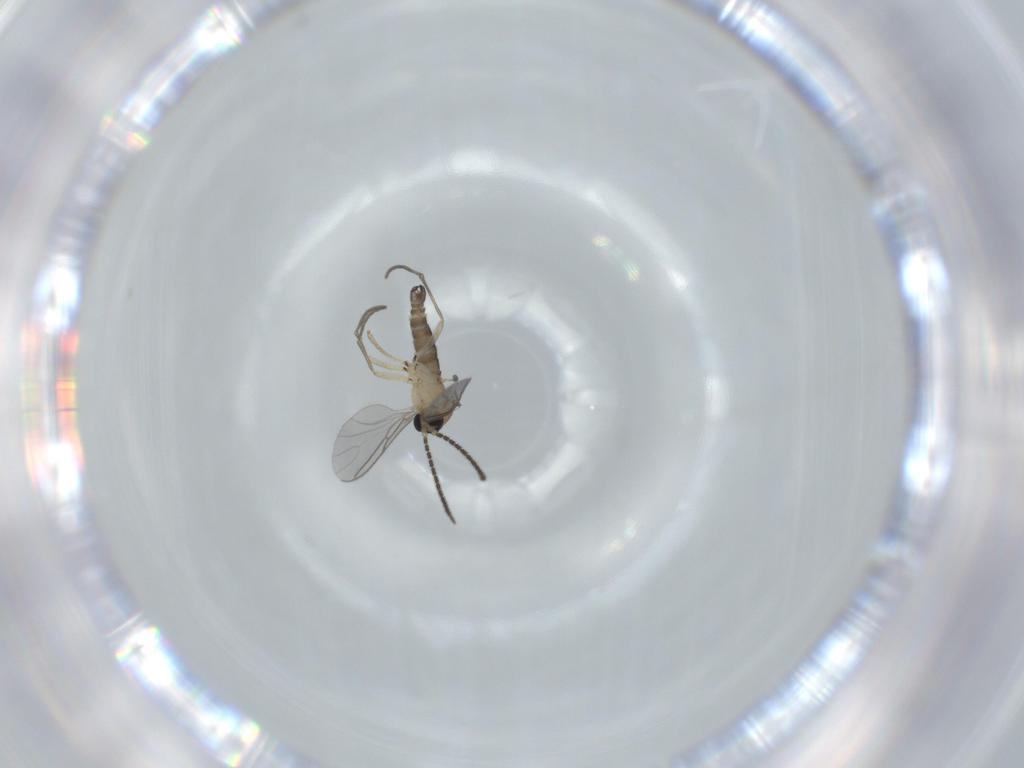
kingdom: Animalia
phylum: Arthropoda
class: Insecta
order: Diptera
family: Sciaridae
